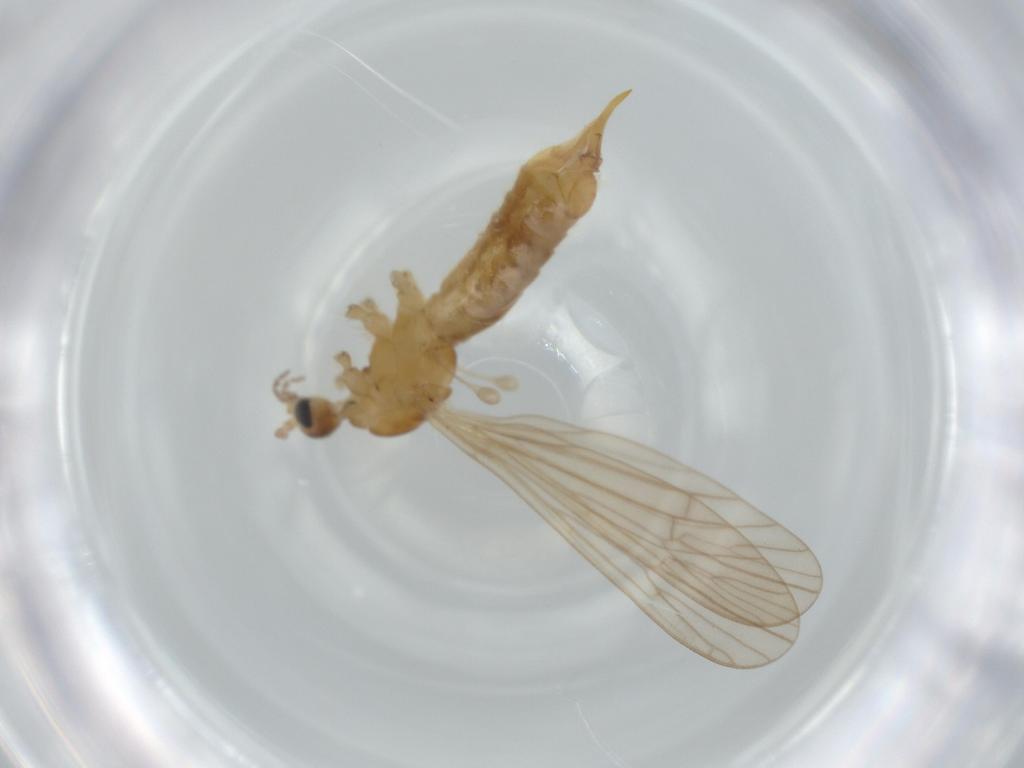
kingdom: Animalia
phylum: Arthropoda
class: Insecta
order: Diptera
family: Limoniidae
